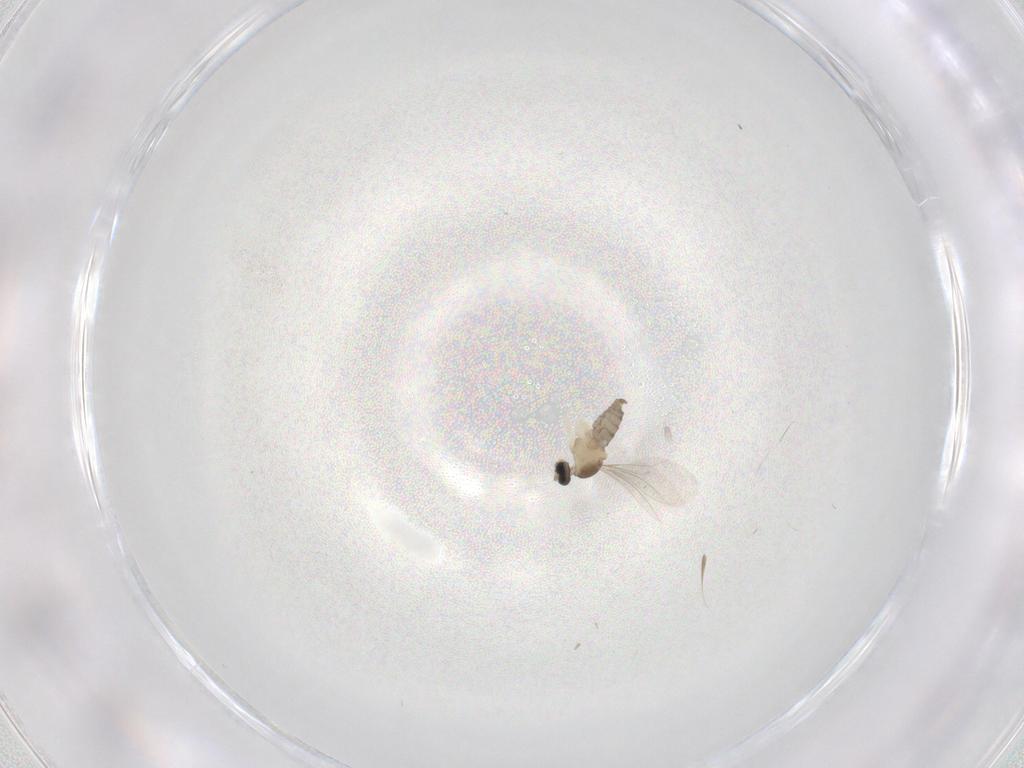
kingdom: Animalia
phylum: Arthropoda
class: Insecta
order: Diptera
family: Cecidomyiidae
